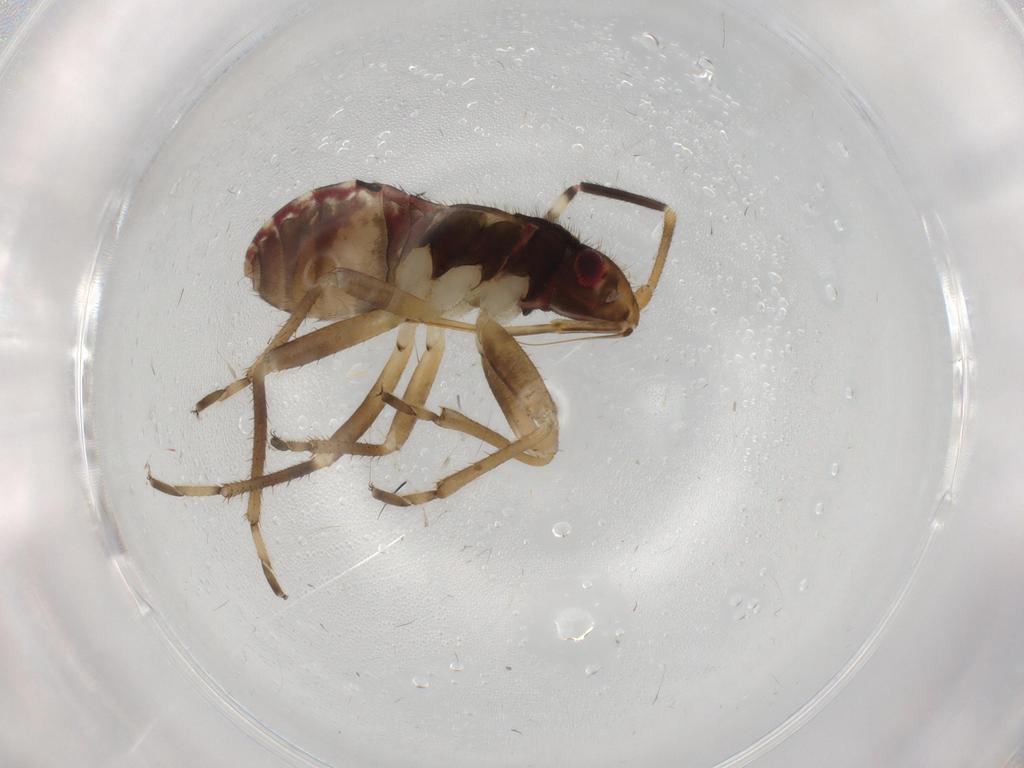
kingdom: Animalia
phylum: Arthropoda
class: Insecta
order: Hemiptera
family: Rhyparochromidae
